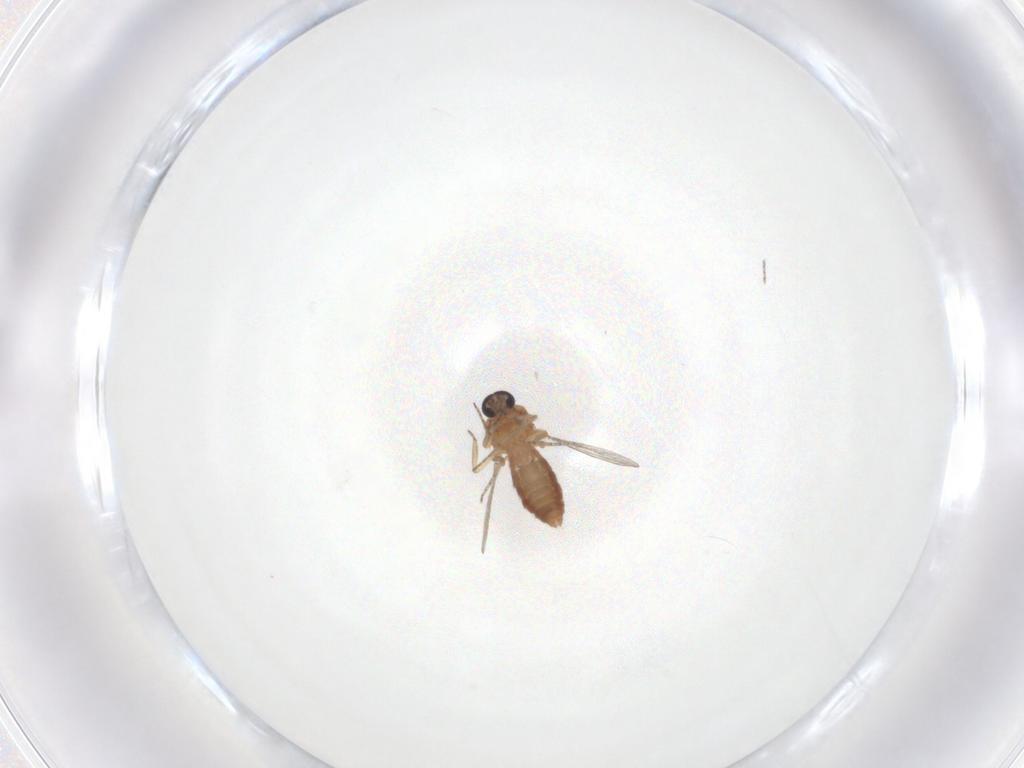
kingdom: Animalia
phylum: Arthropoda
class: Insecta
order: Diptera
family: Ceratopogonidae
